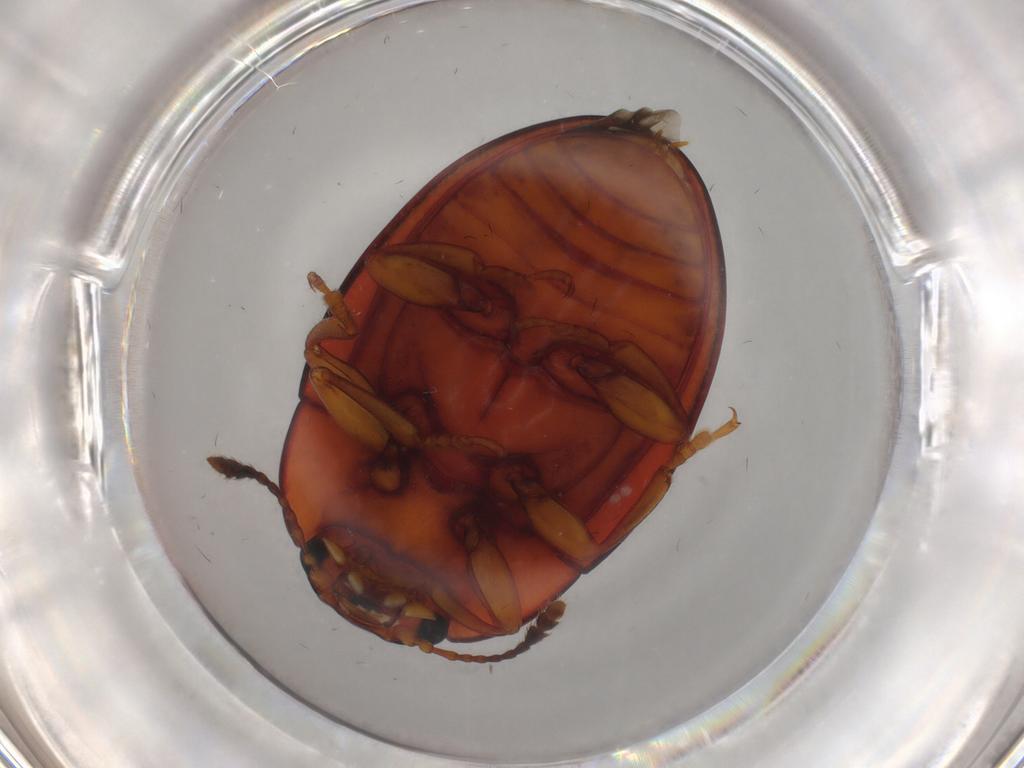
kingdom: Animalia
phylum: Arthropoda
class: Insecta
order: Coleoptera
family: Erotylidae
